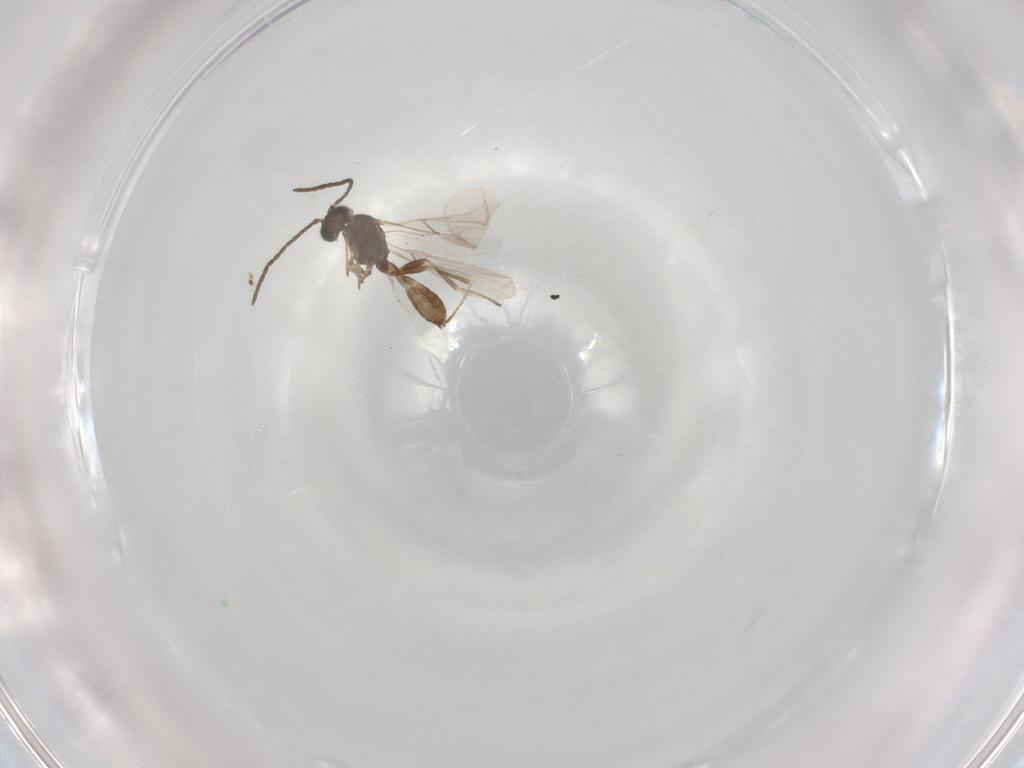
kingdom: Animalia
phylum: Arthropoda
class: Insecta
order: Hymenoptera
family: Braconidae
